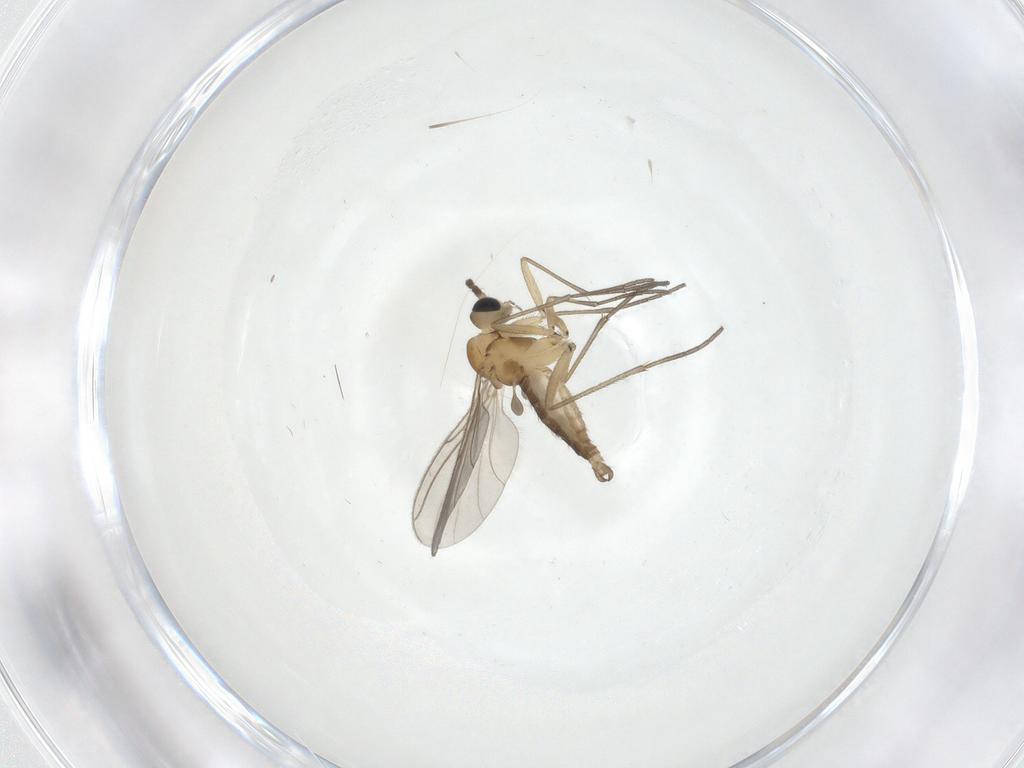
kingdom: Animalia
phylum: Arthropoda
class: Insecta
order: Diptera
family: Sciaridae
